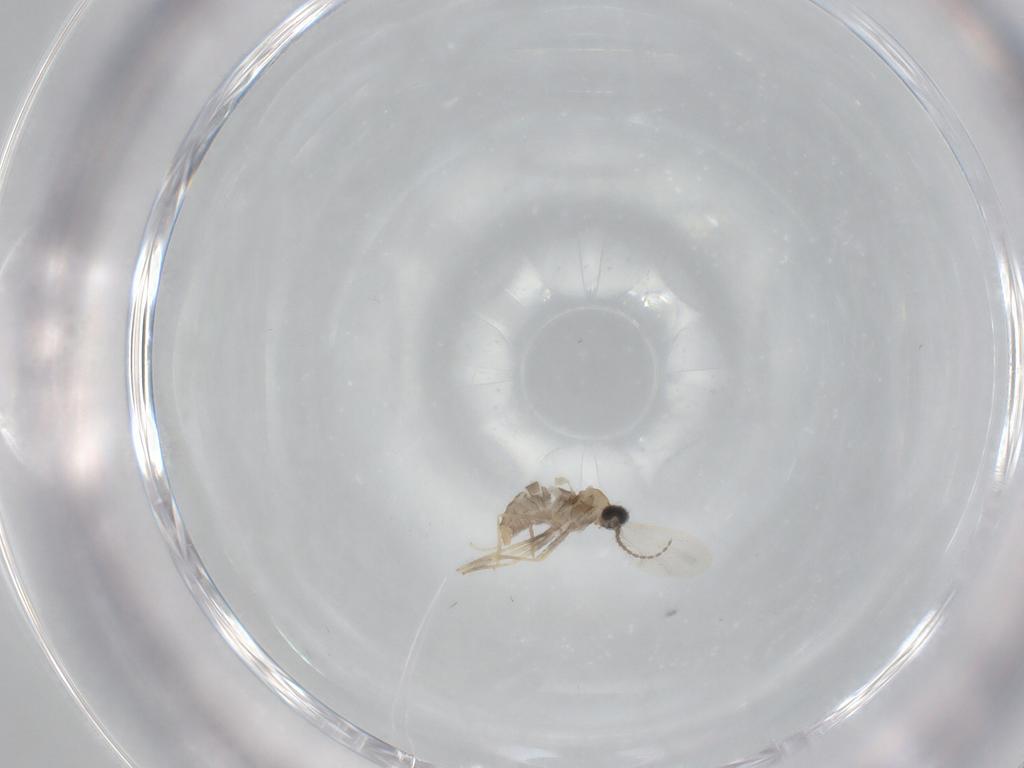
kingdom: Animalia
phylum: Arthropoda
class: Insecta
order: Diptera
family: Cecidomyiidae
